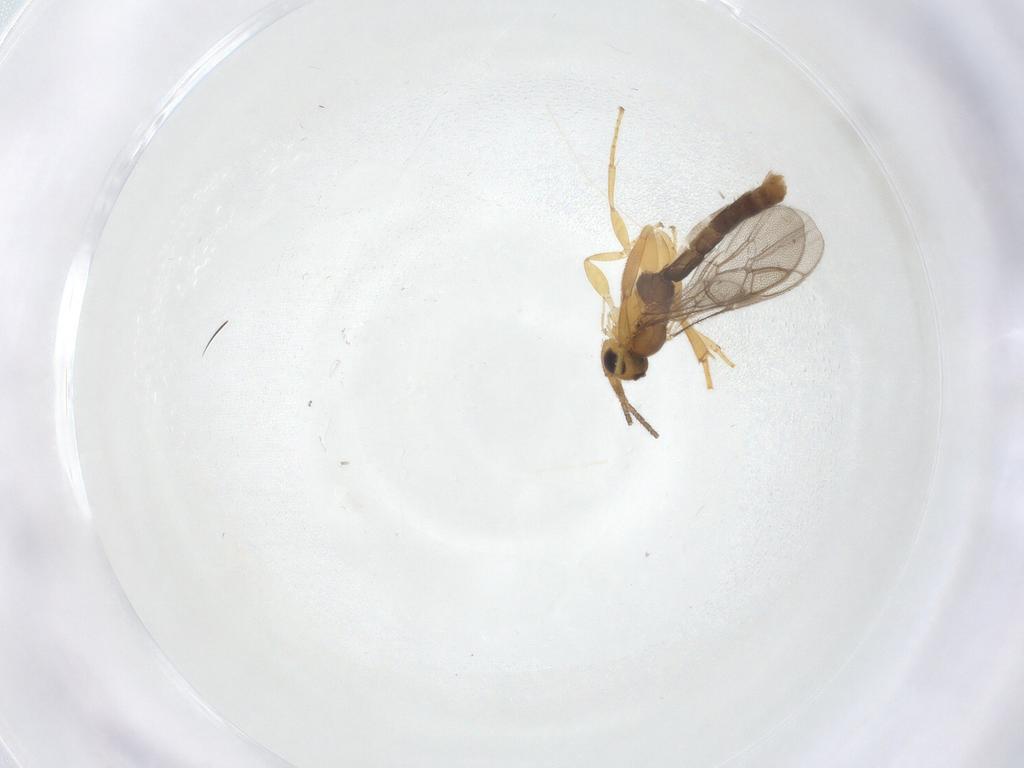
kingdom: Animalia
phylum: Arthropoda
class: Insecta
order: Hymenoptera
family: Ichneumonidae
